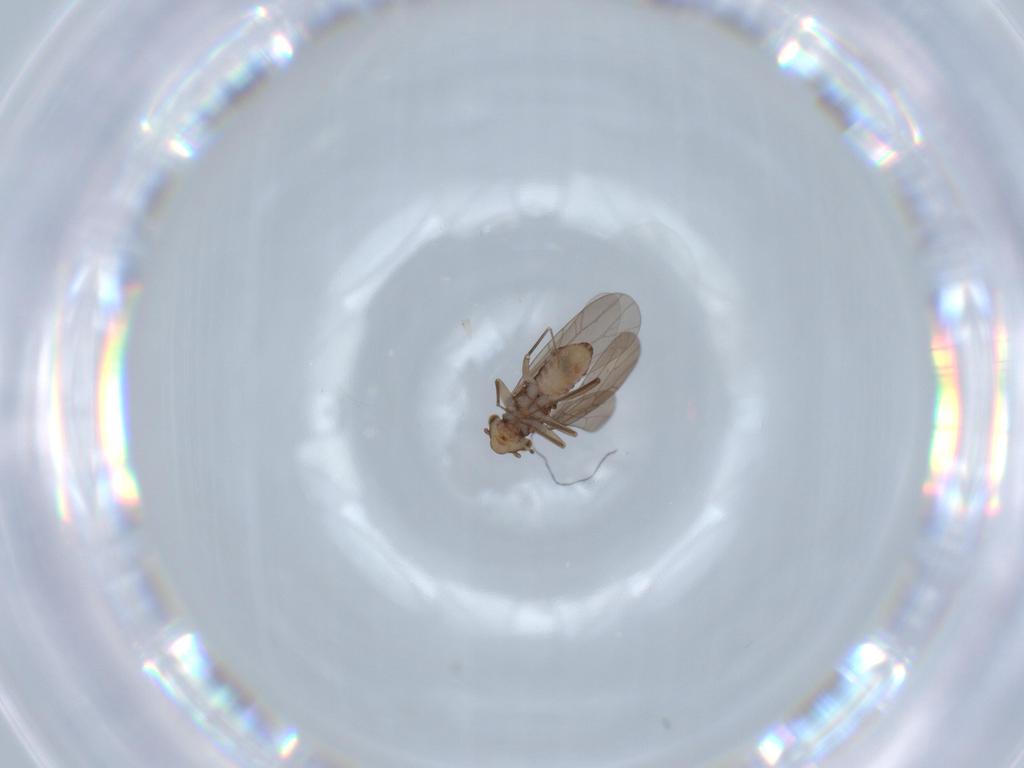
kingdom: Animalia
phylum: Arthropoda
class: Insecta
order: Psocodea
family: Lepidopsocidae
